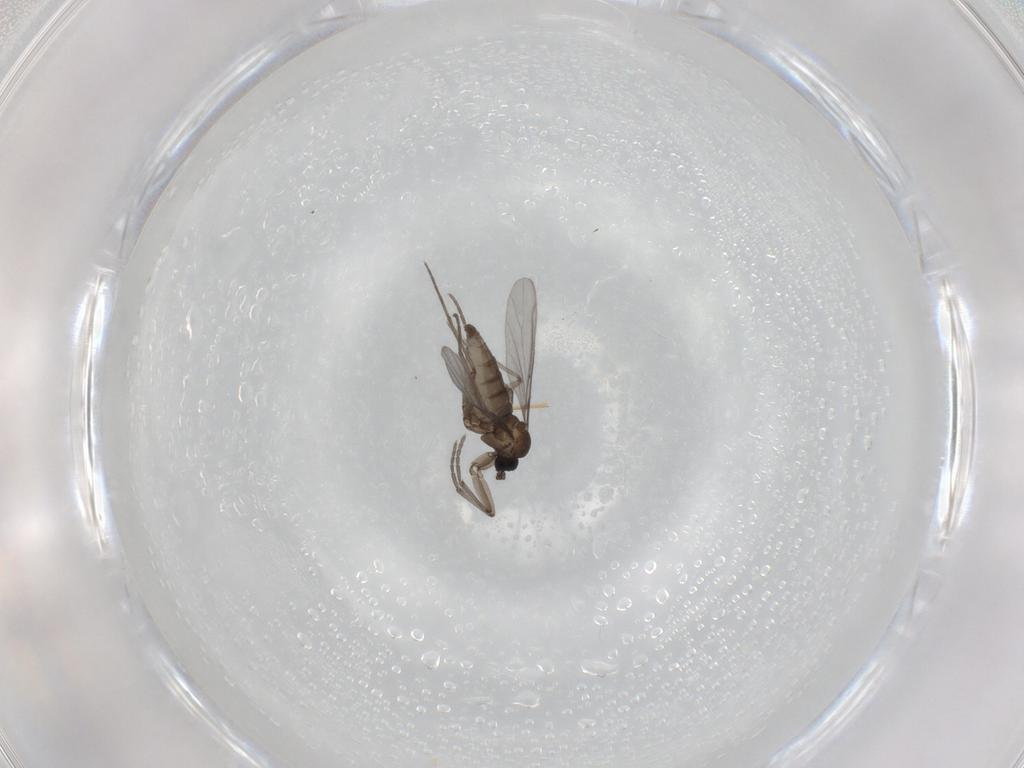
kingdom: Animalia
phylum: Arthropoda
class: Insecta
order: Diptera
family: Sciaridae
